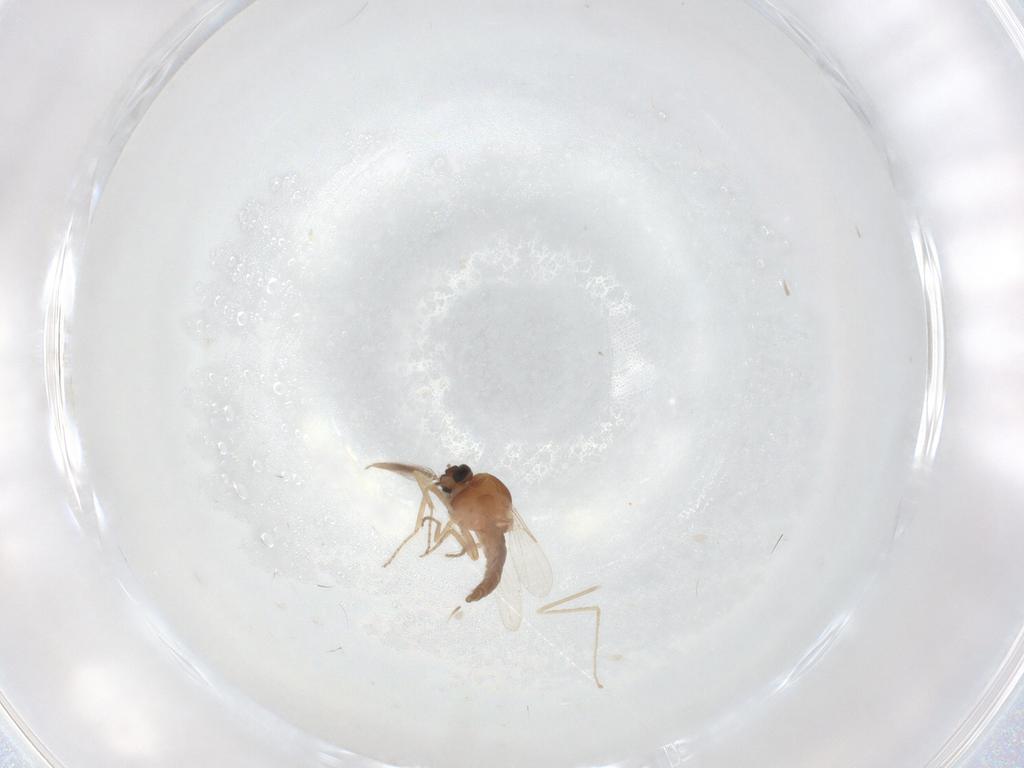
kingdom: Animalia
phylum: Arthropoda
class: Insecta
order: Diptera
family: Ceratopogonidae
